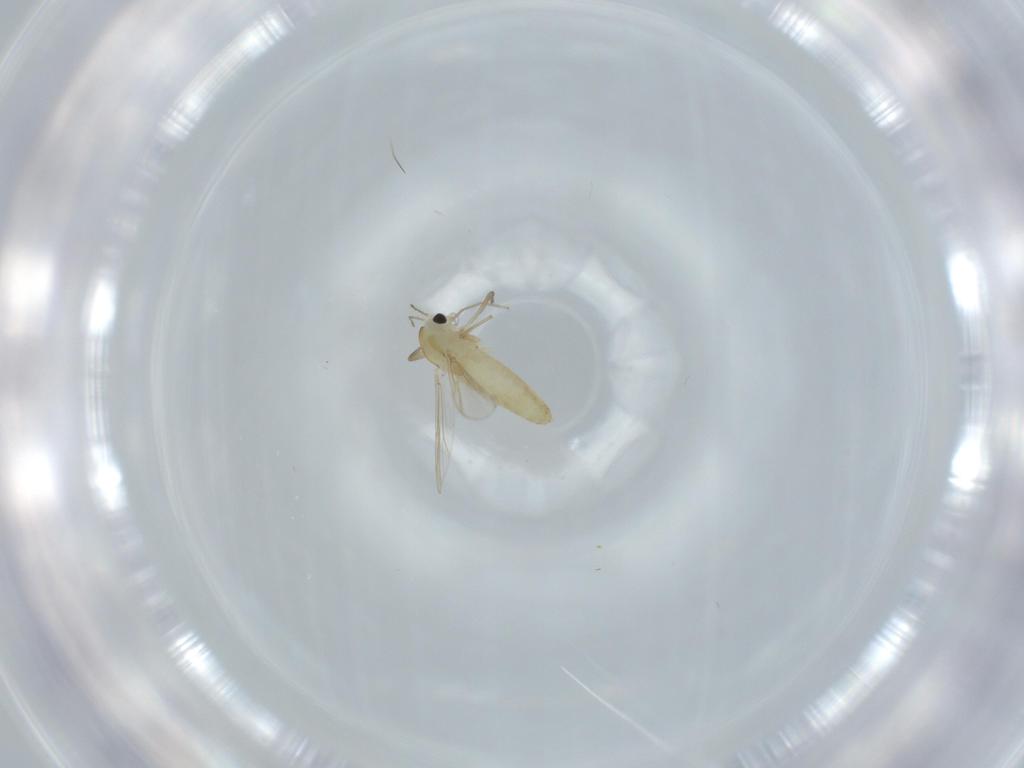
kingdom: Animalia
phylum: Arthropoda
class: Insecta
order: Diptera
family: Chironomidae
